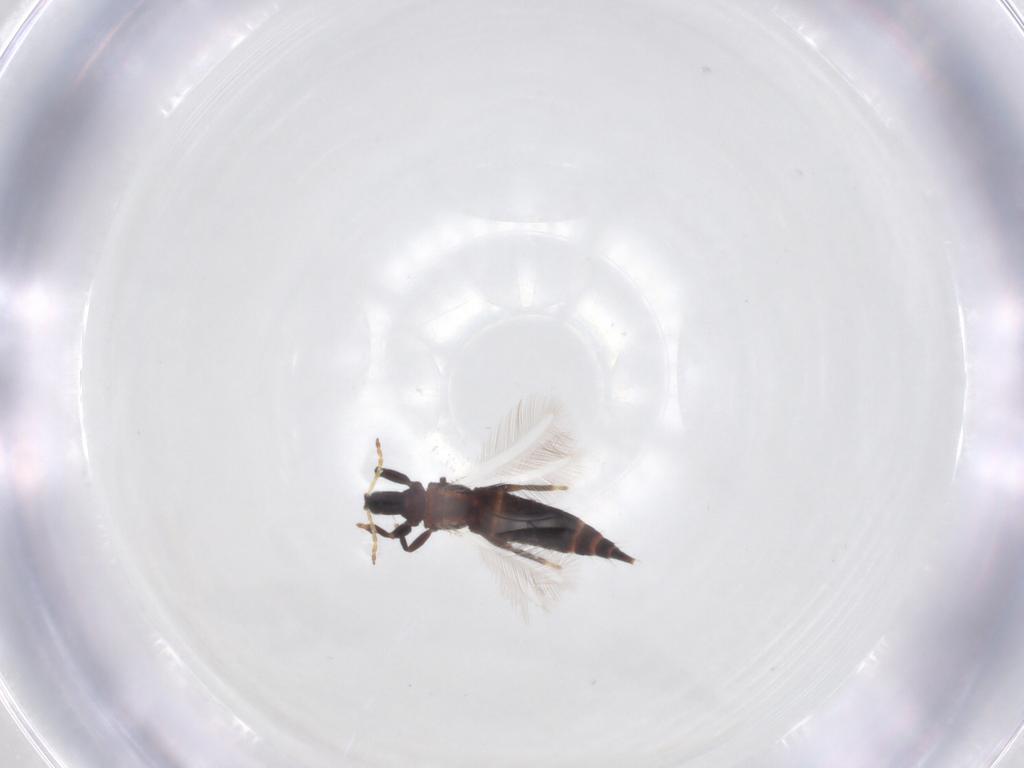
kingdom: Animalia
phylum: Arthropoda
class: Insecta
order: Thysanoptera
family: Phlaeothripidae
